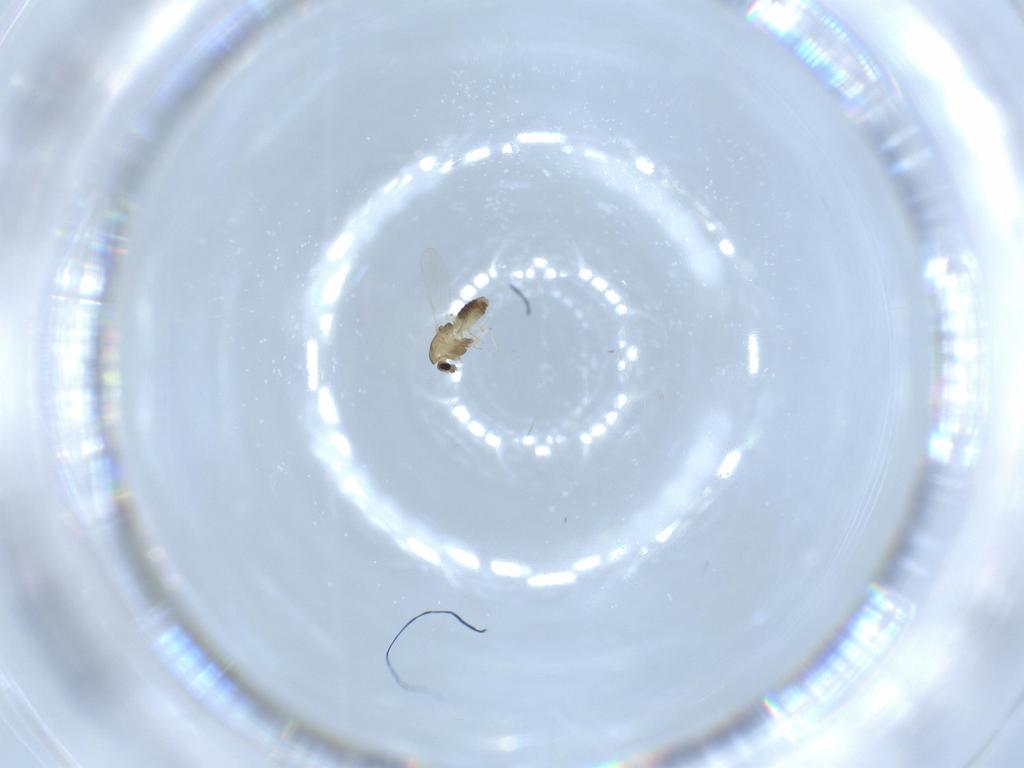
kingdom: Animalia
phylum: Arthropoda
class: Insecta
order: Diptera
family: Chironomidae
